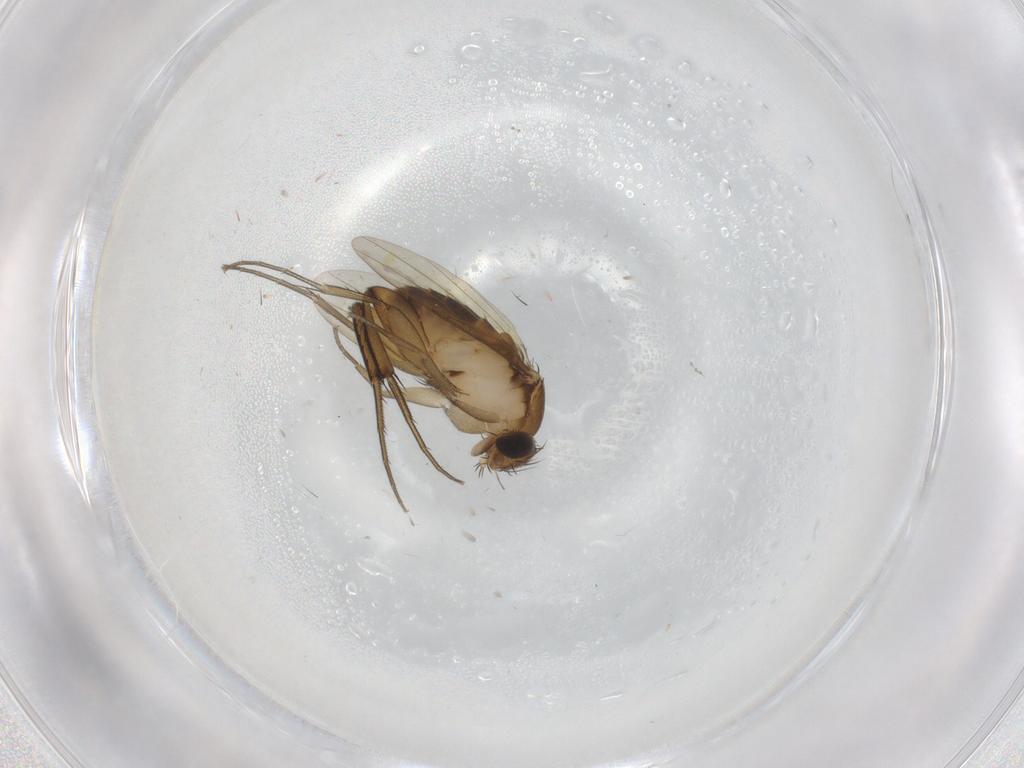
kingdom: Animalia
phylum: Arthropoda
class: Insecta
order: Diptera
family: Phoridae
